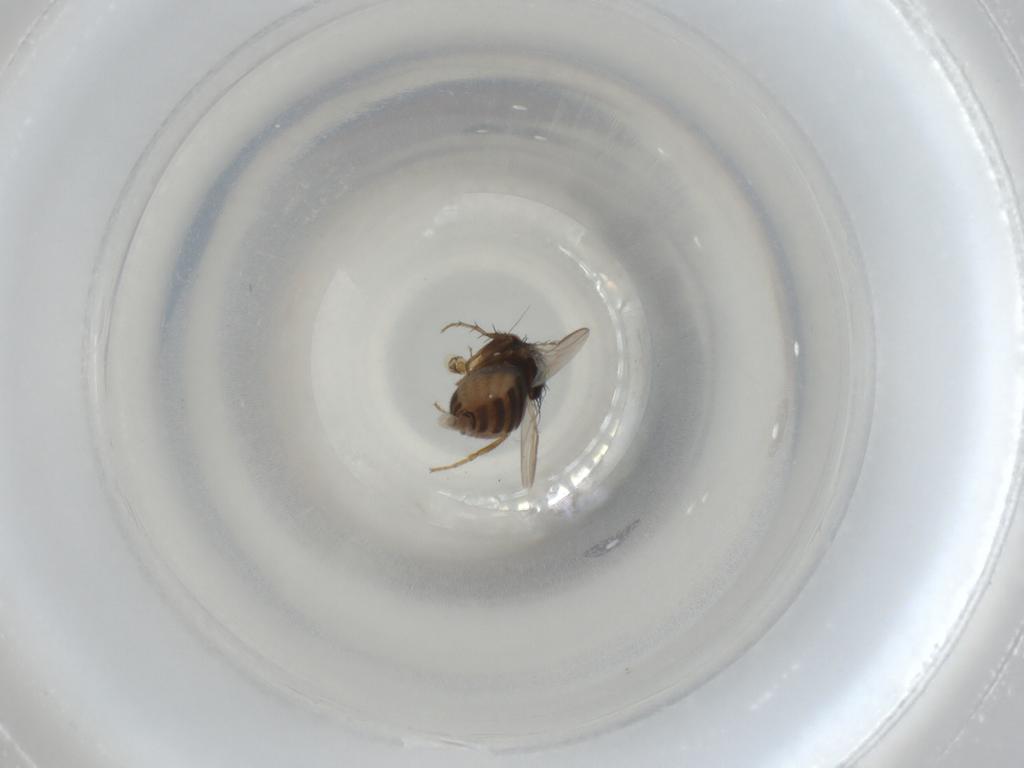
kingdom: Animalia
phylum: Arthropoda
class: Insecta
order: Diptera
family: Sphaeroceridae
